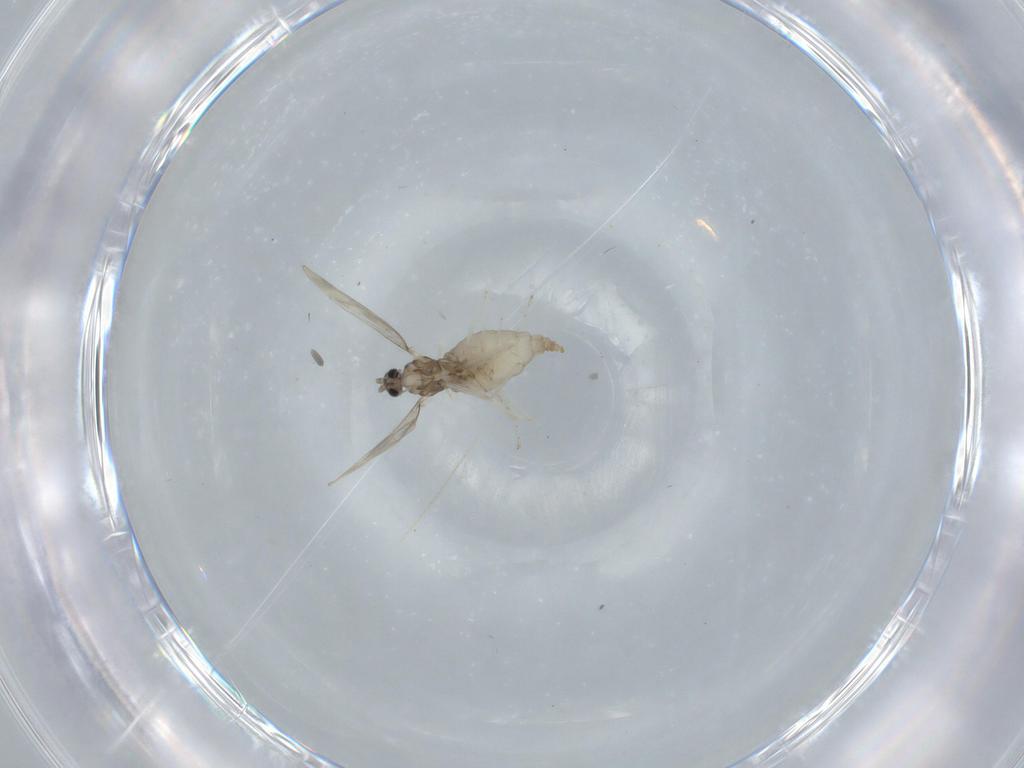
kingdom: Animalia
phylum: Arthropoda
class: Insecta
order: Diptera
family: Cecidomyiidae
